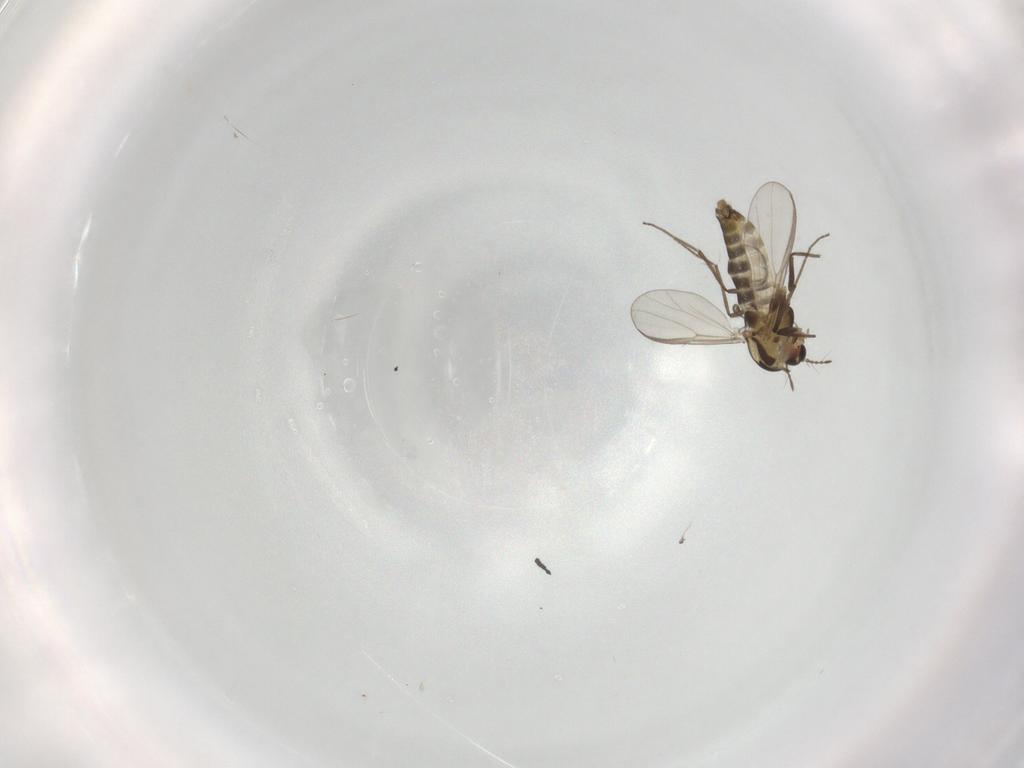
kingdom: Animalia
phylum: Arthropoda
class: Insecta
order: Diptera
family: Chironomidae
